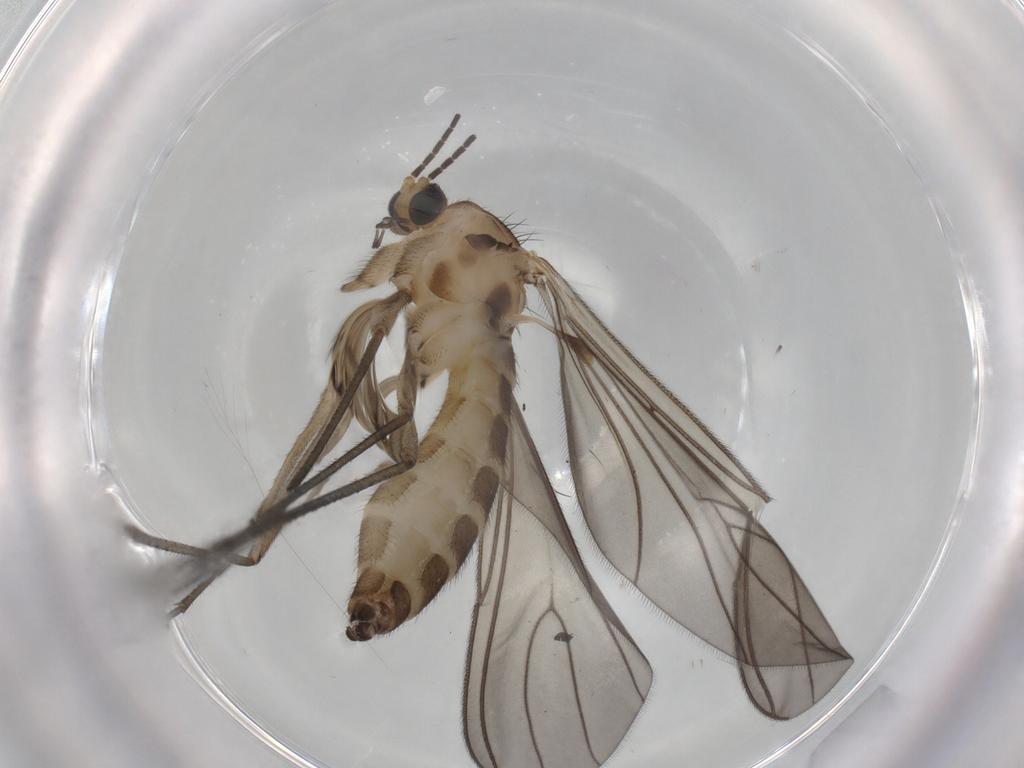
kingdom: Animalia
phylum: Arthropoda
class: Insecta
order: Diptera
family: Sciaridae
